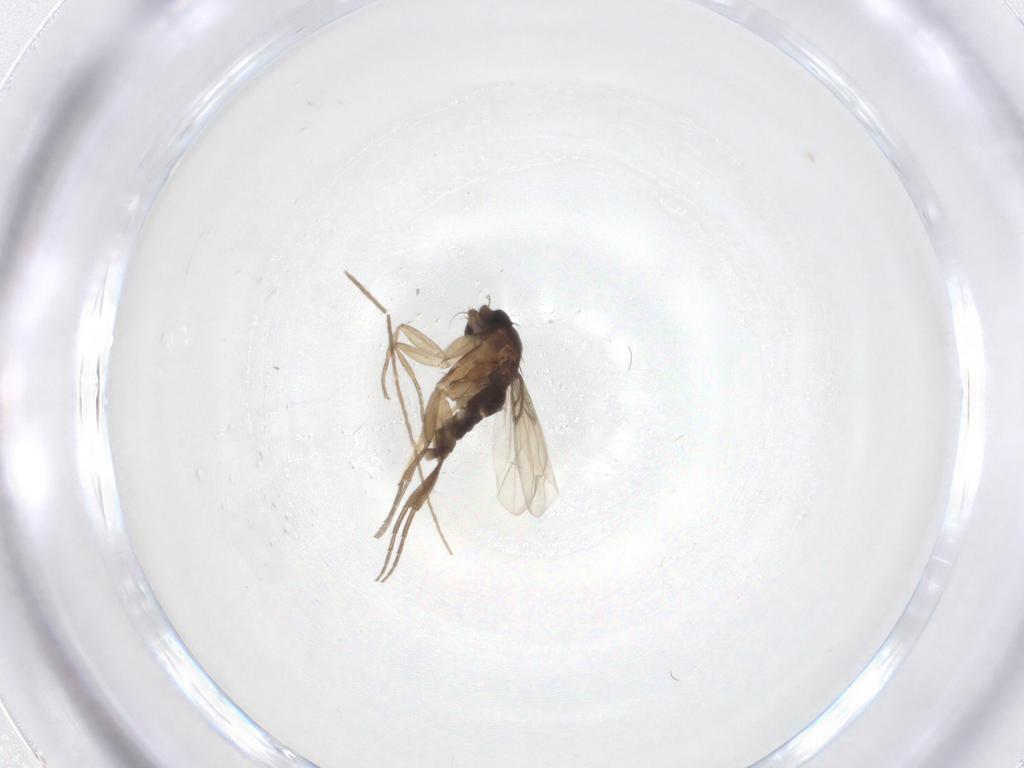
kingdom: Animalia
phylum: Arthropoda
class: Insecta
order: Diptera
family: Phoridae
